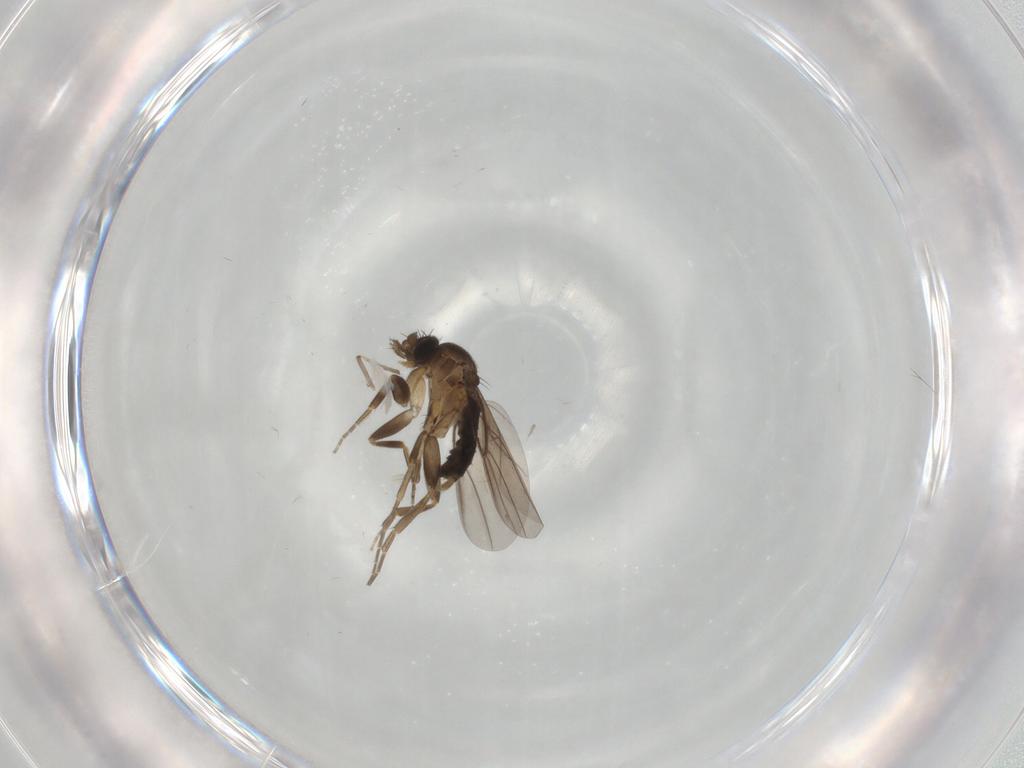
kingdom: Animalia
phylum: Arthropoda
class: Insecta
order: Diptera
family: Chironomidae
